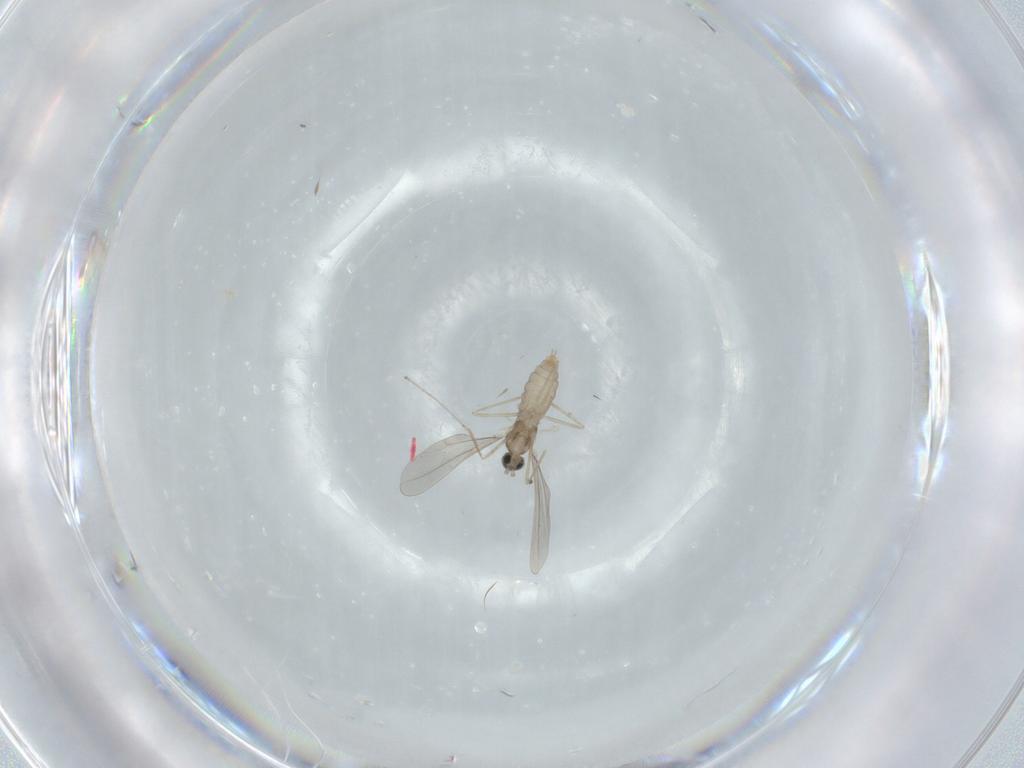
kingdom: Animalia
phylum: Arthropoda
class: Insecta
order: Diptera
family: Cecidomyiidae
